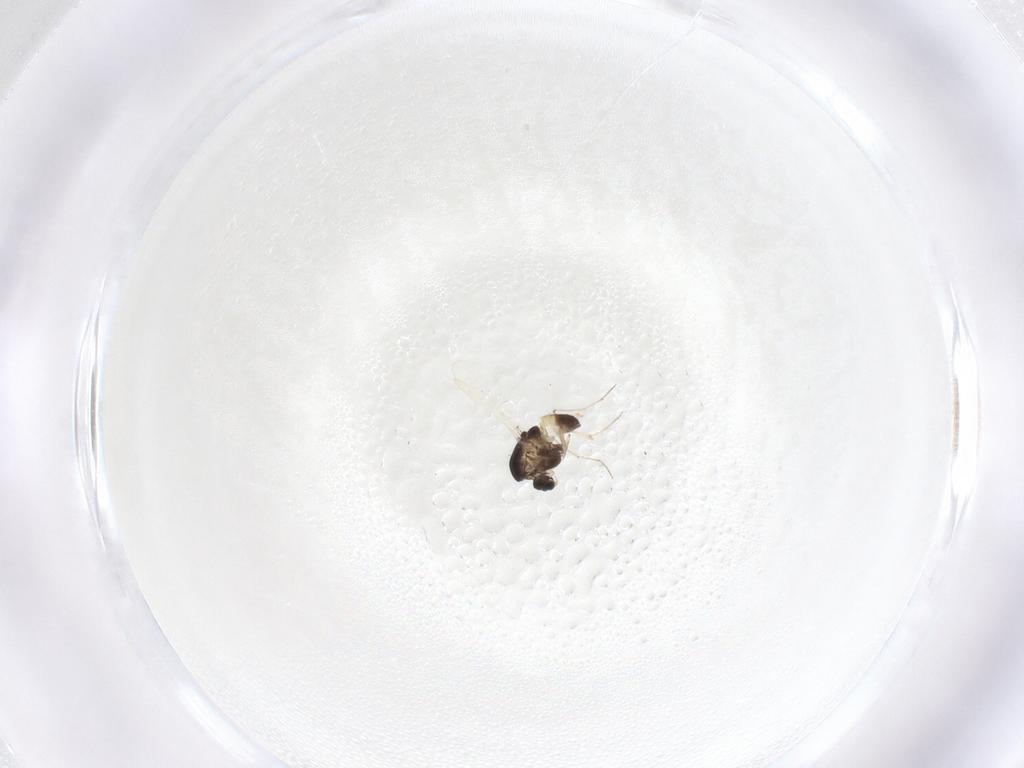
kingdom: Animalia
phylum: Arthropoda
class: Insecta
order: Diptera
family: Chironomidae
